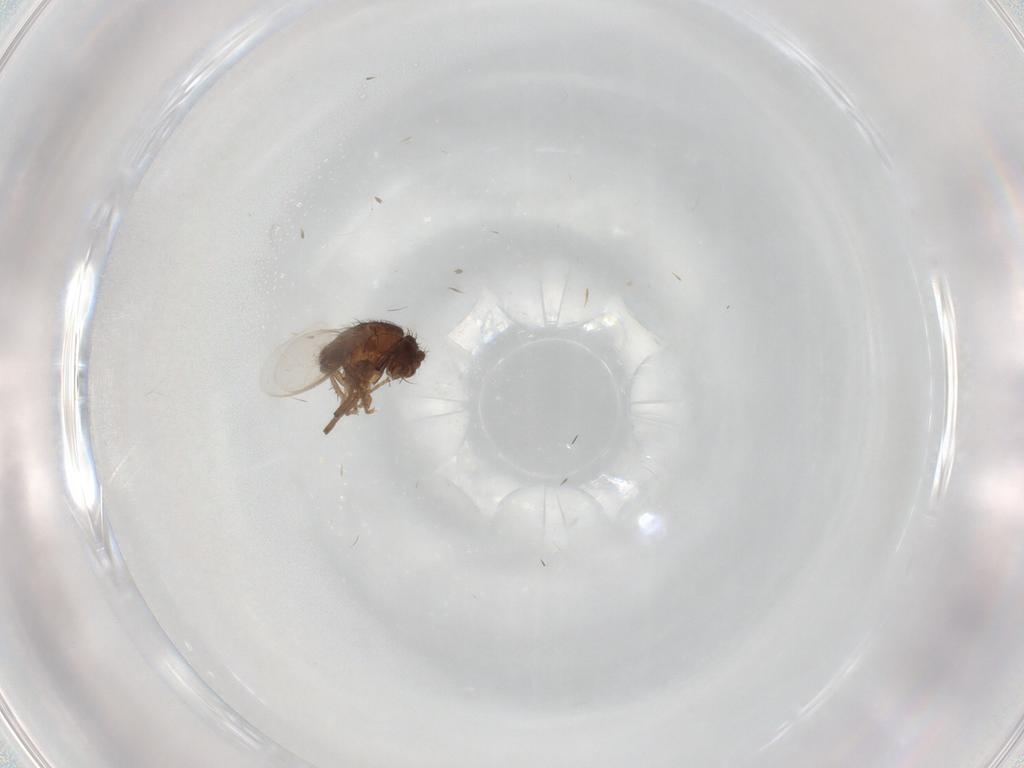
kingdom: Animalia
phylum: Arthropoda
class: Insecta
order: Diptera
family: Sphaeroceridae
